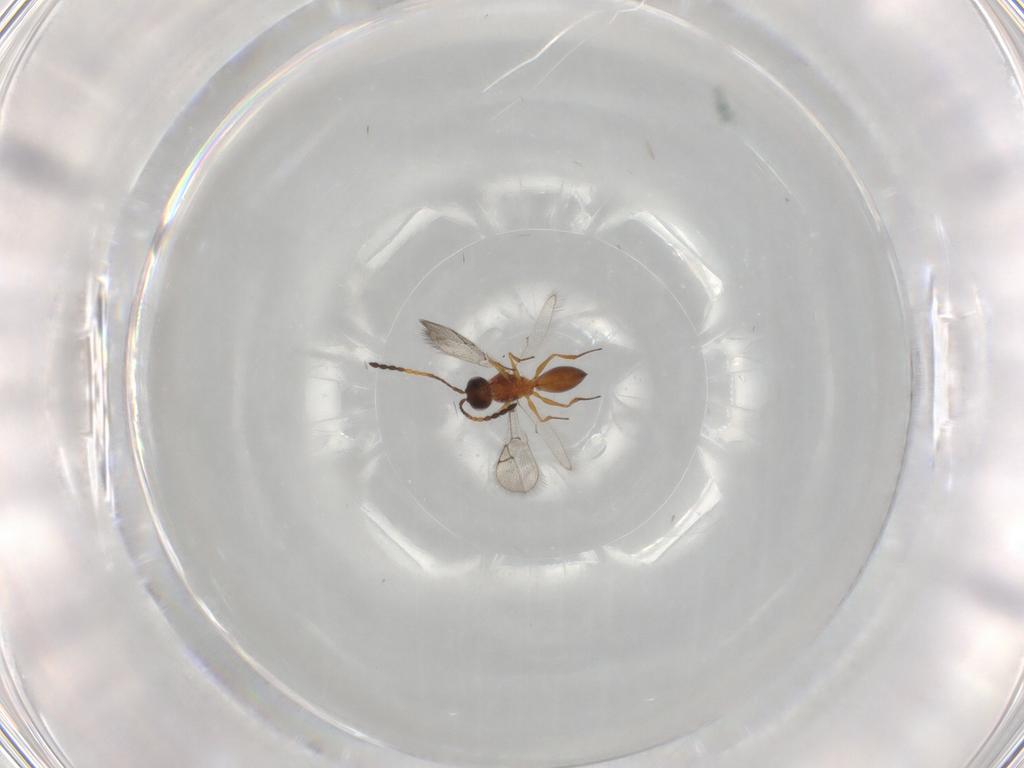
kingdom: Animalia
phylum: Arthropoda
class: Insecta
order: Hymenoptera
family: Figitidae
